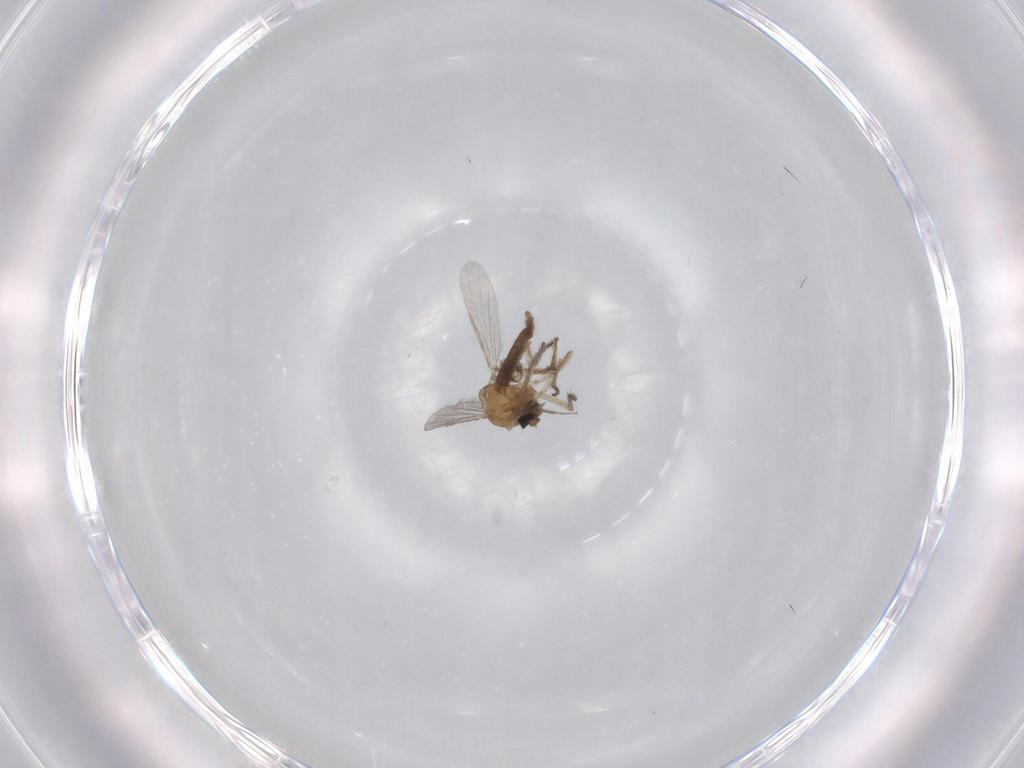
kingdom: Animalia
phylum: Arthropoda
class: Insecta
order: Diptera
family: Ceratopogonidae
